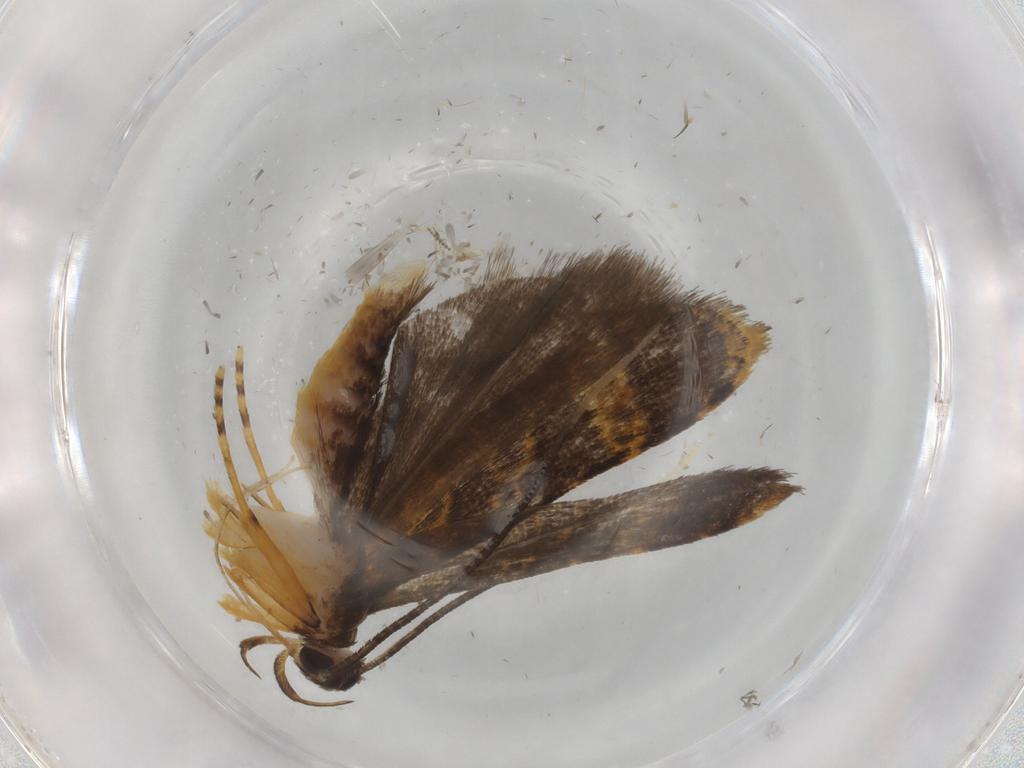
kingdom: Animalia
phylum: Arthropoda
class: Insecta
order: Lepidoptera
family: Cosmopterigidae
